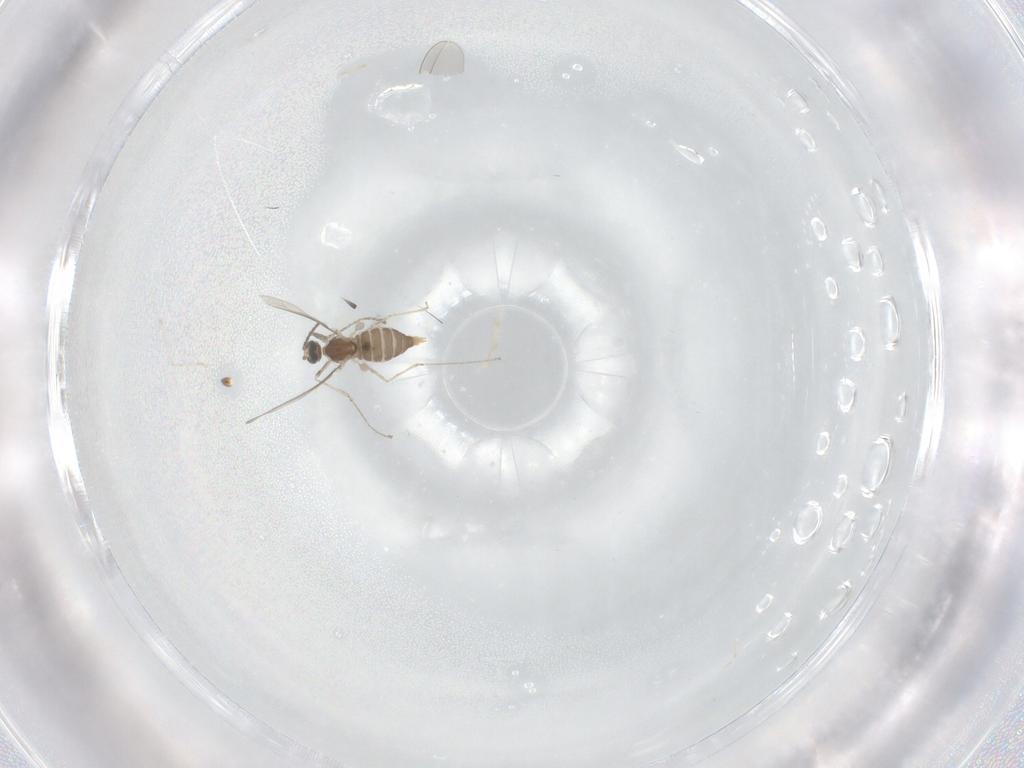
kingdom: Animalia
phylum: Arthropoda
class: Insecta
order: Diptera
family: Cecidomyiidae
